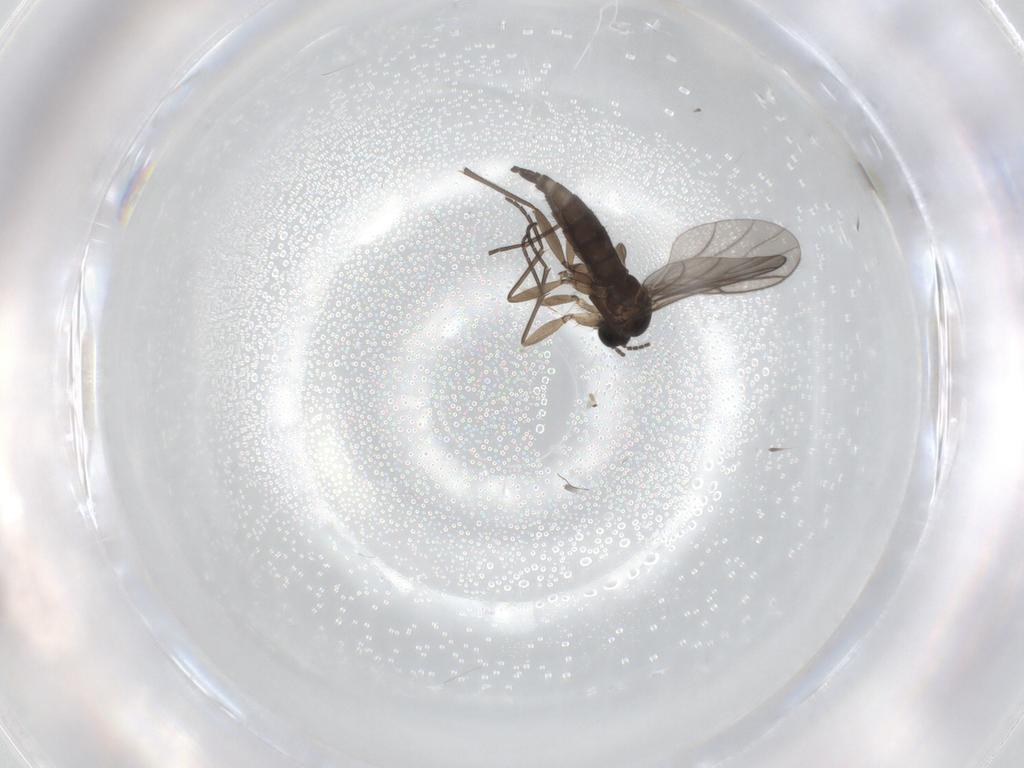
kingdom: Animalia
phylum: Arthropoda
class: Insecta
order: Diptera
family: Sciaridae
